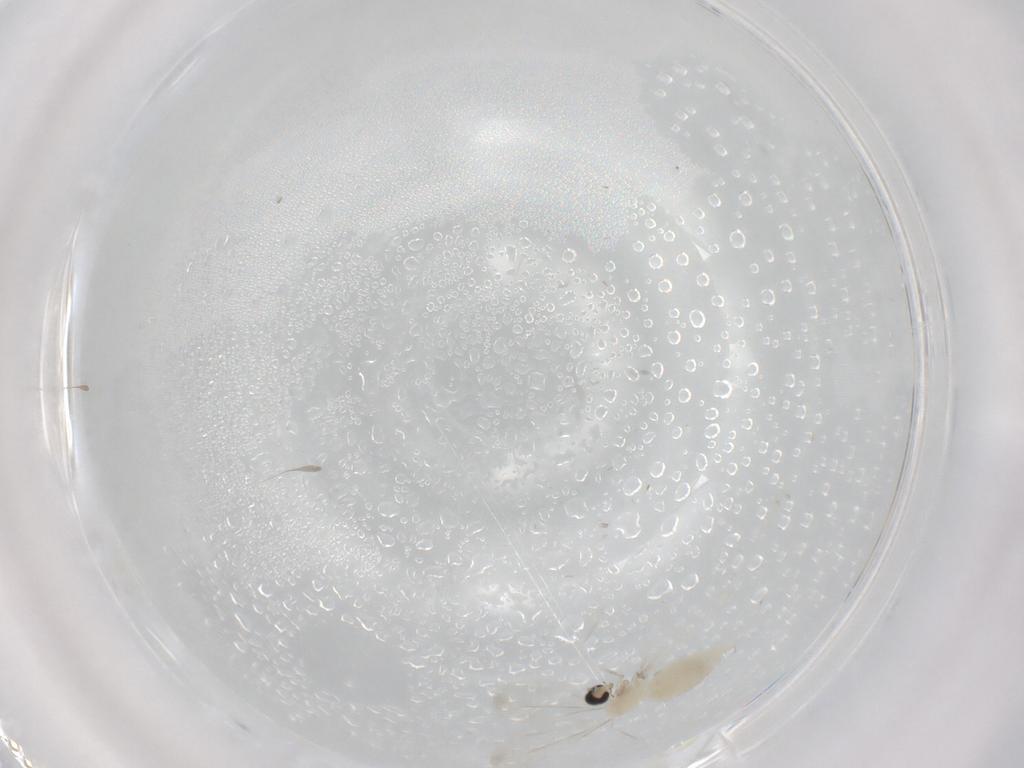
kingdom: Animalia
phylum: Arthropoda
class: Insecta
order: Diptera
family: Cecidomyiidae
